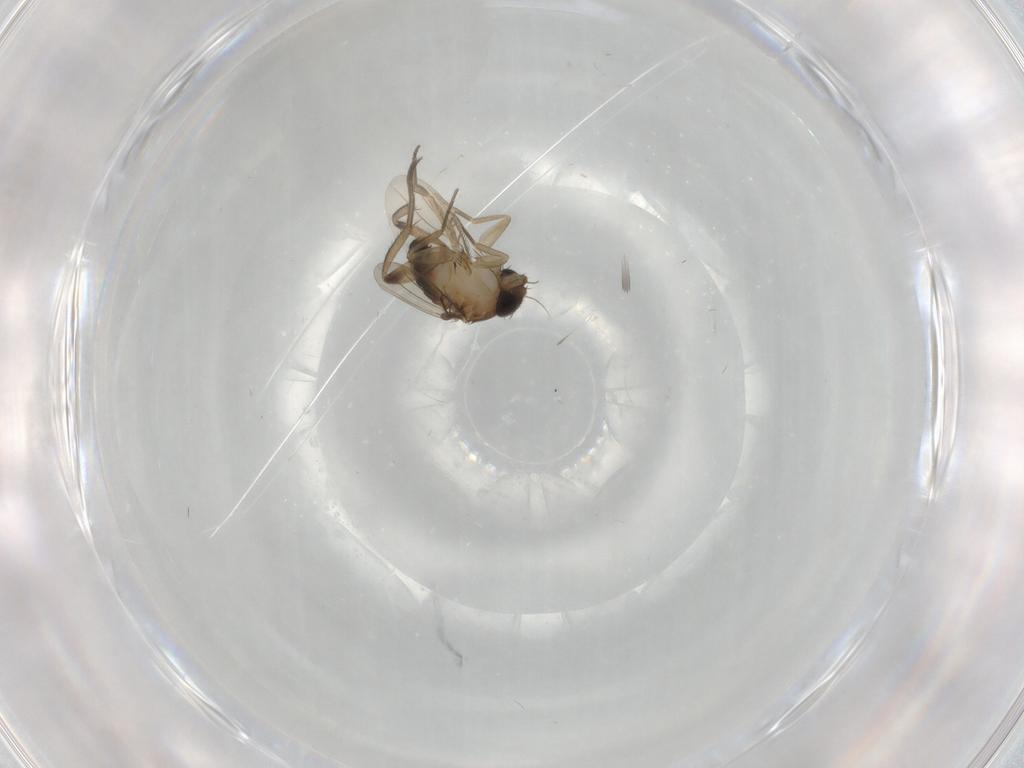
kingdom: Animalia
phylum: Arthropoda
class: Insecta
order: Diptera
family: Phoridae
